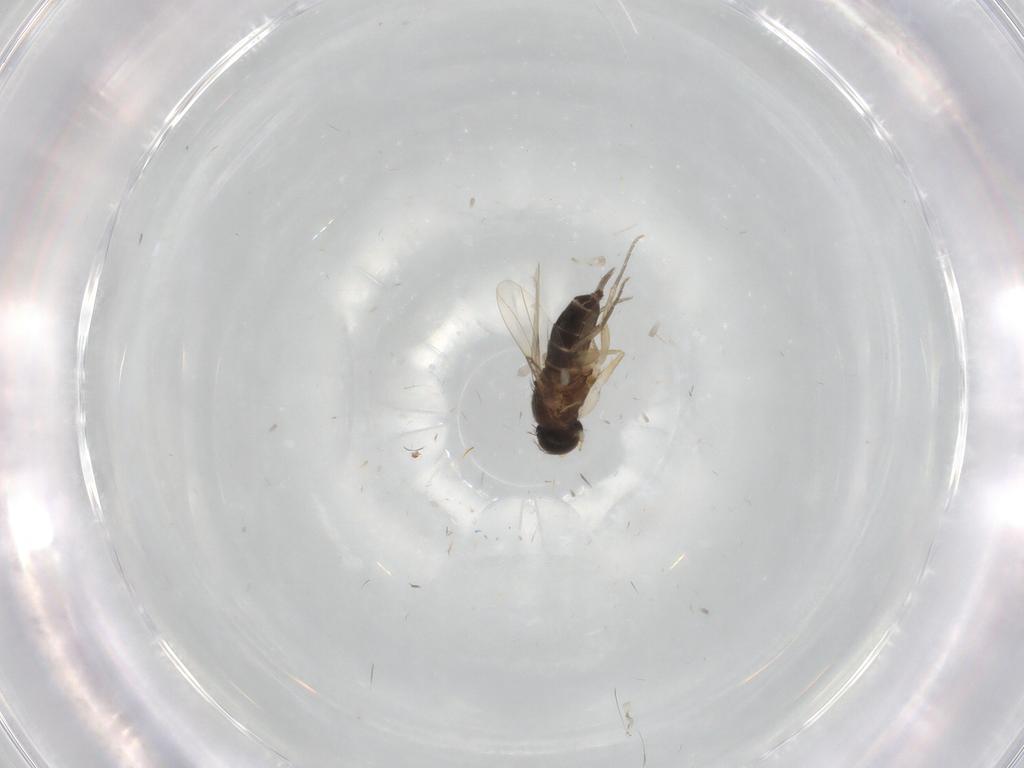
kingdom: Animalia
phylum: Arthropoda
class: Insecta
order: Diptera
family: Phoridae
